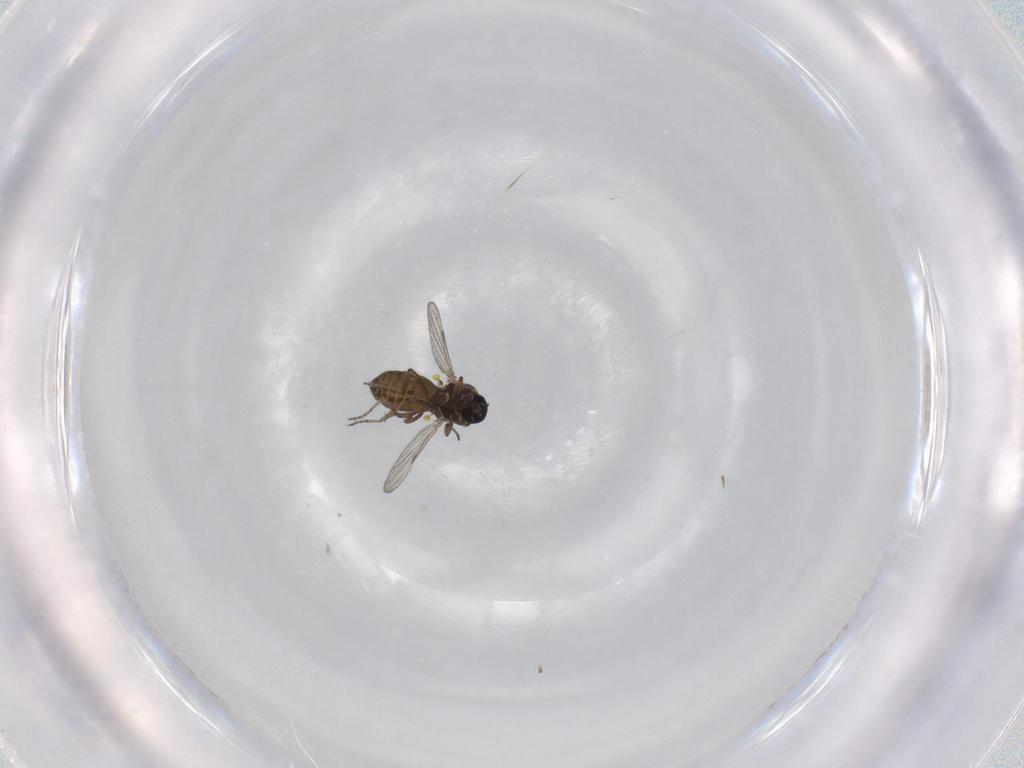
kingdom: Animalia
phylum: Arthropoda
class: Insecta
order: Diptera
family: Ceratopogonidae
